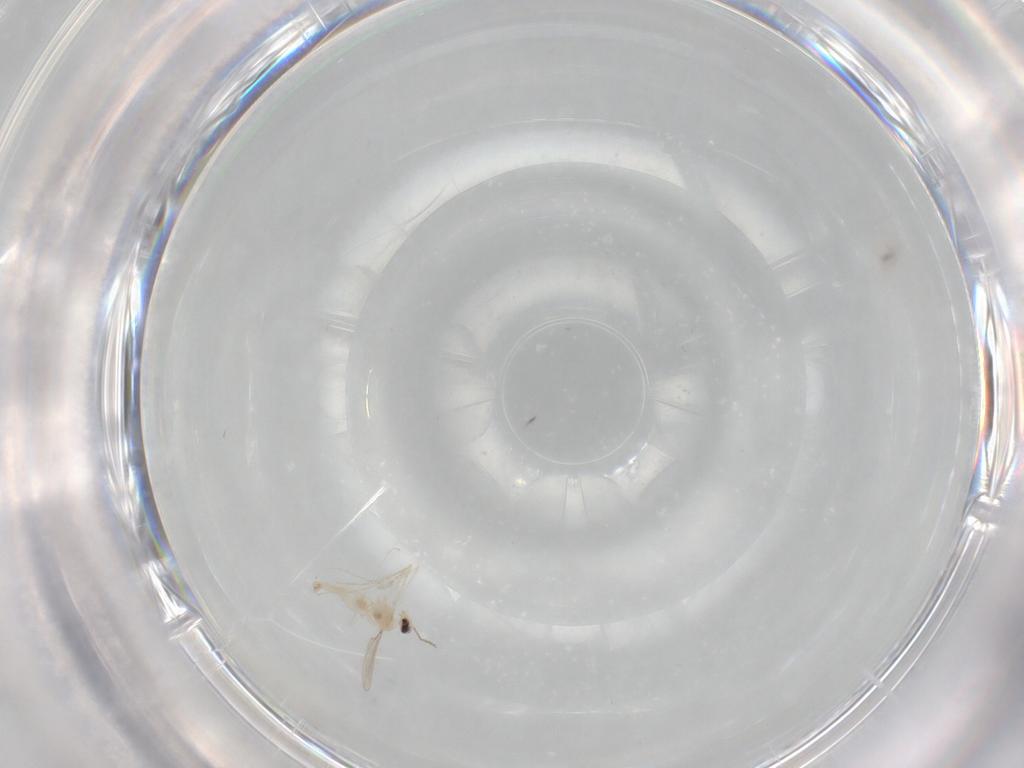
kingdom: Animalia
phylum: Arthropoda
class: Insecta
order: Diptera
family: Cecidomyiidae
